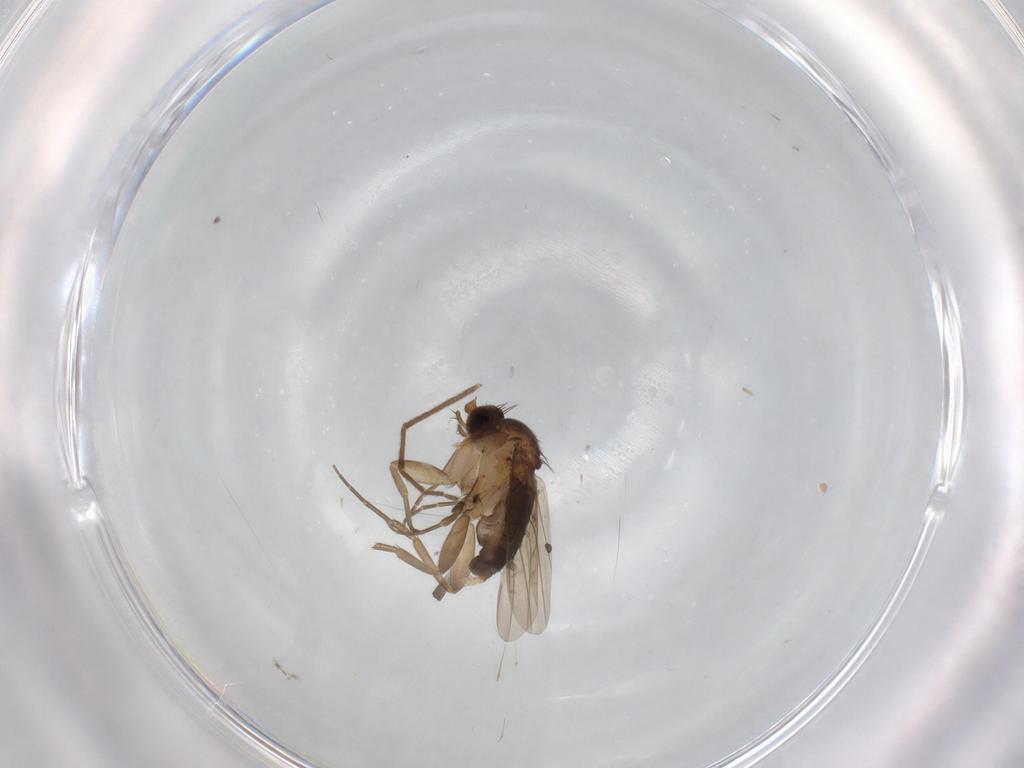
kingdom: Animalia
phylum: Arthropoda
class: Insecta
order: Diptera
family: Phoridae
